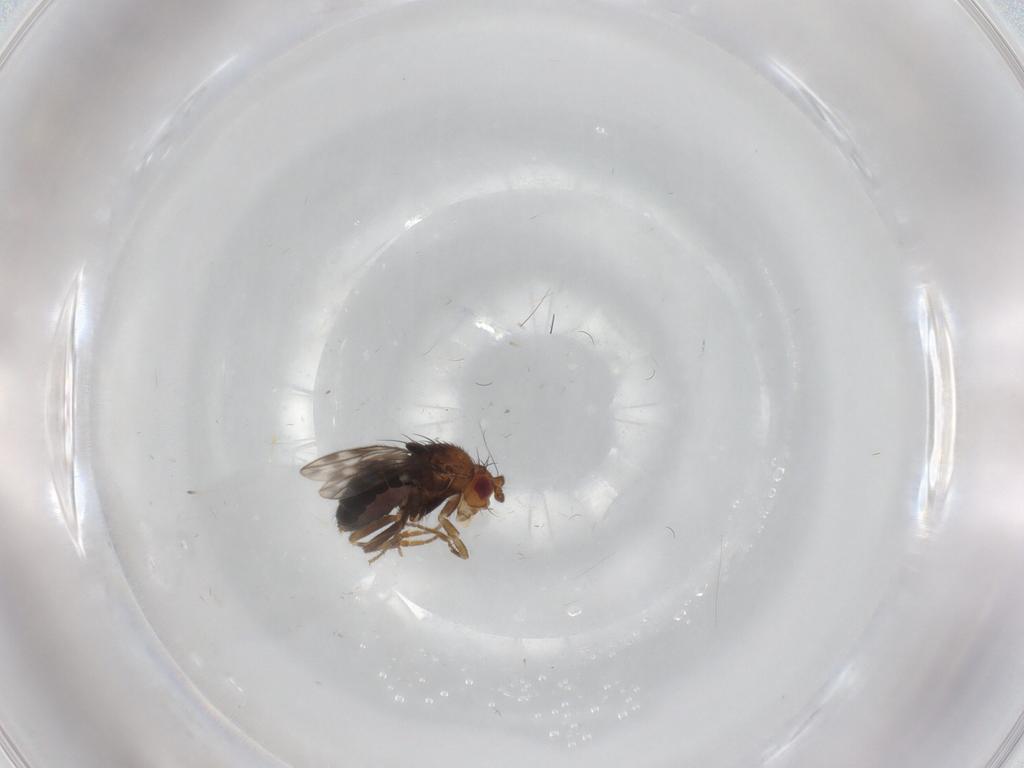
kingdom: Animalia
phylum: Arthropoda
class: Insecta
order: Diptera
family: Sphaeroceridae
